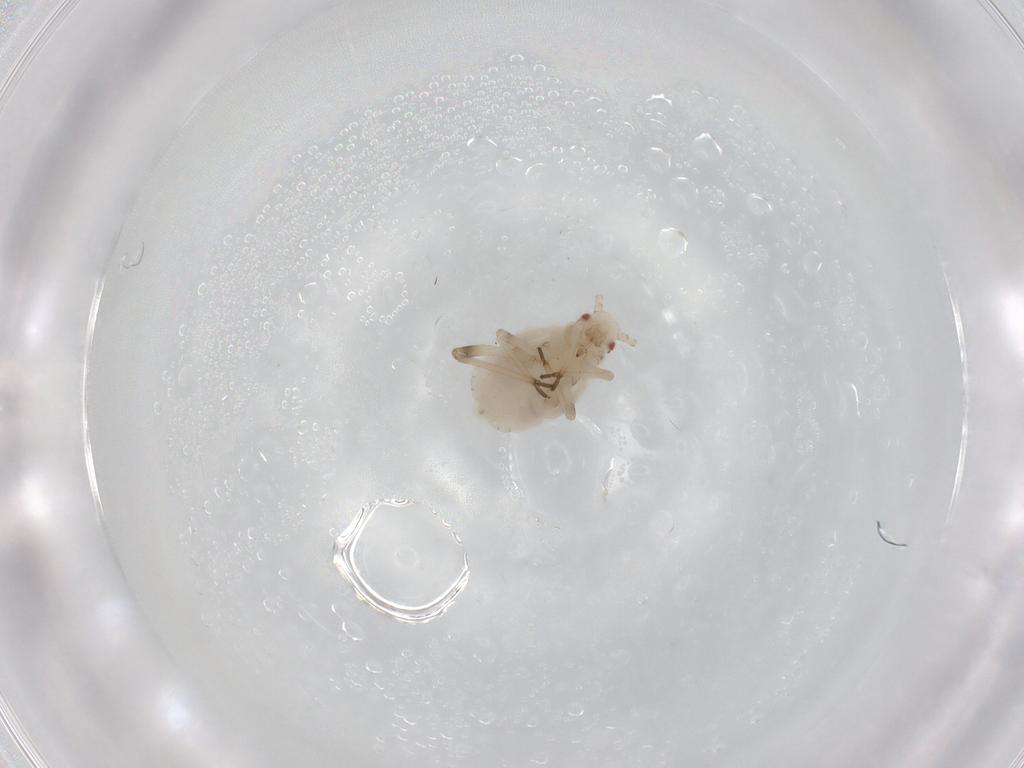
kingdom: Animalia
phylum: Arthropoda
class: Insecta
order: Hemiptera
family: Aphididae
